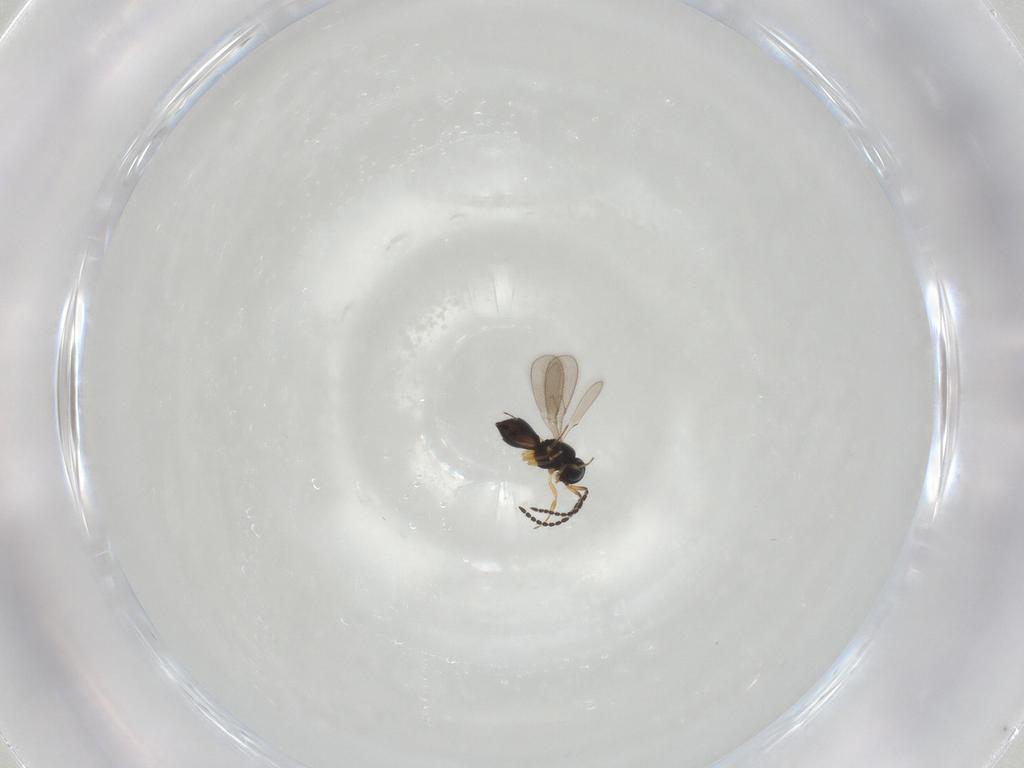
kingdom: Animalia
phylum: Arthropoda
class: Insecta
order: Hymenoptera
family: Scelionidae
